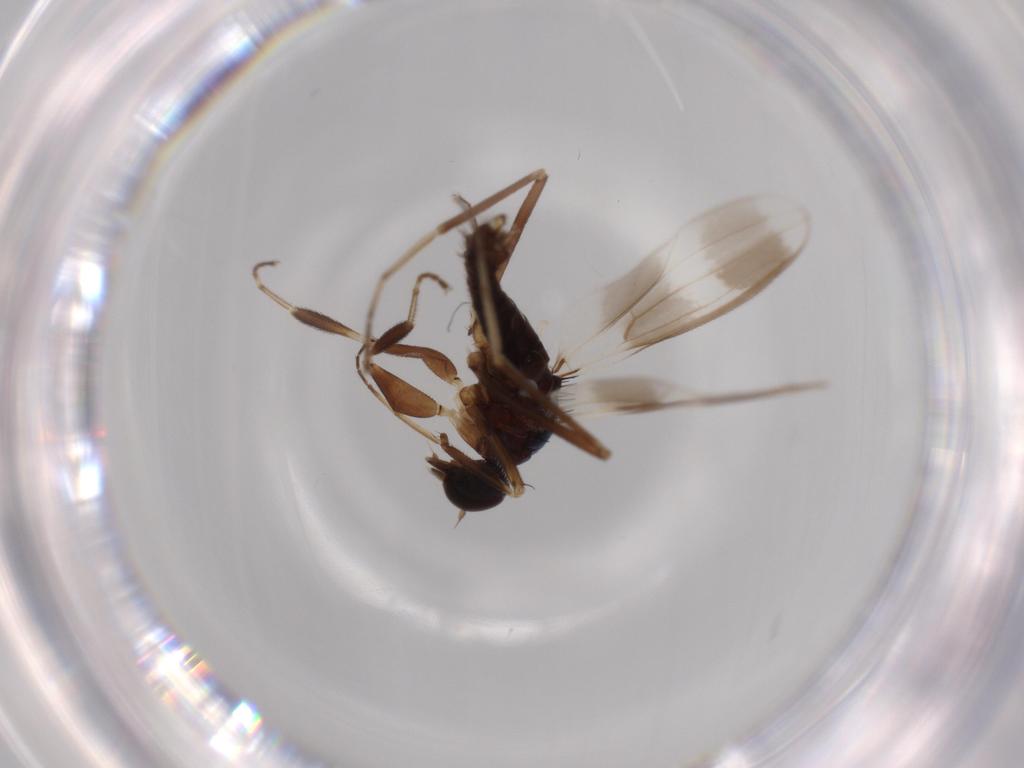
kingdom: Animalia
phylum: Arthropoda
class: Insecta
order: Diptera
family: Hybotidae
